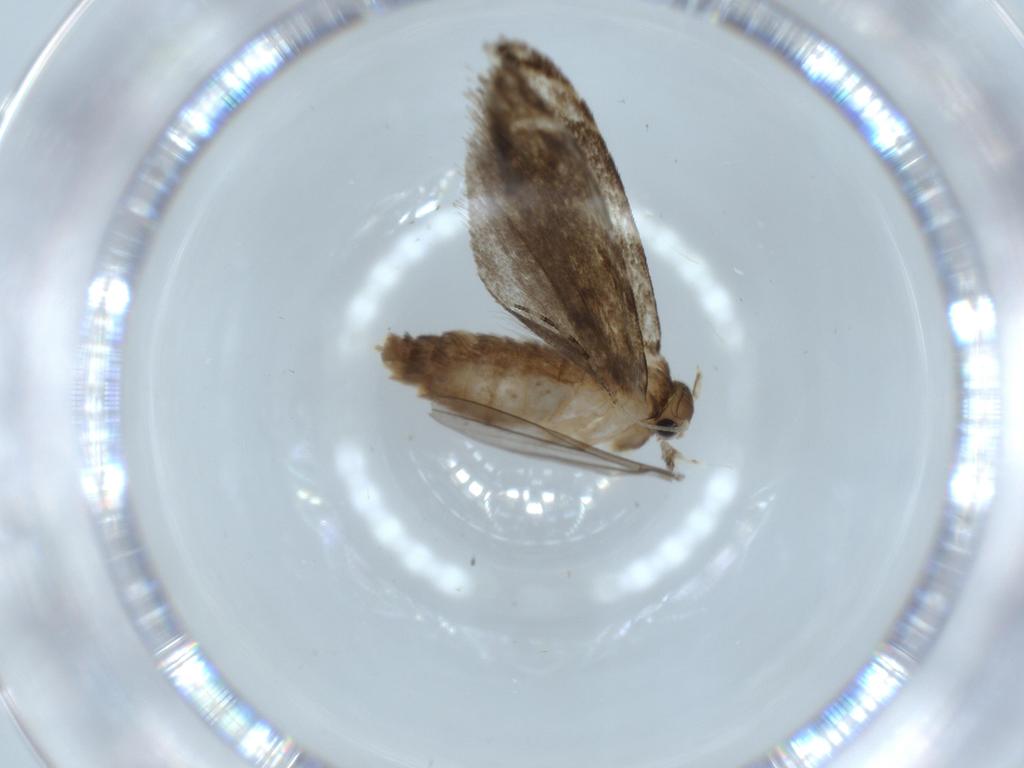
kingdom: Animalia
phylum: Arthropoda
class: Insecta
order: Lepidoptera
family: Tineidae
